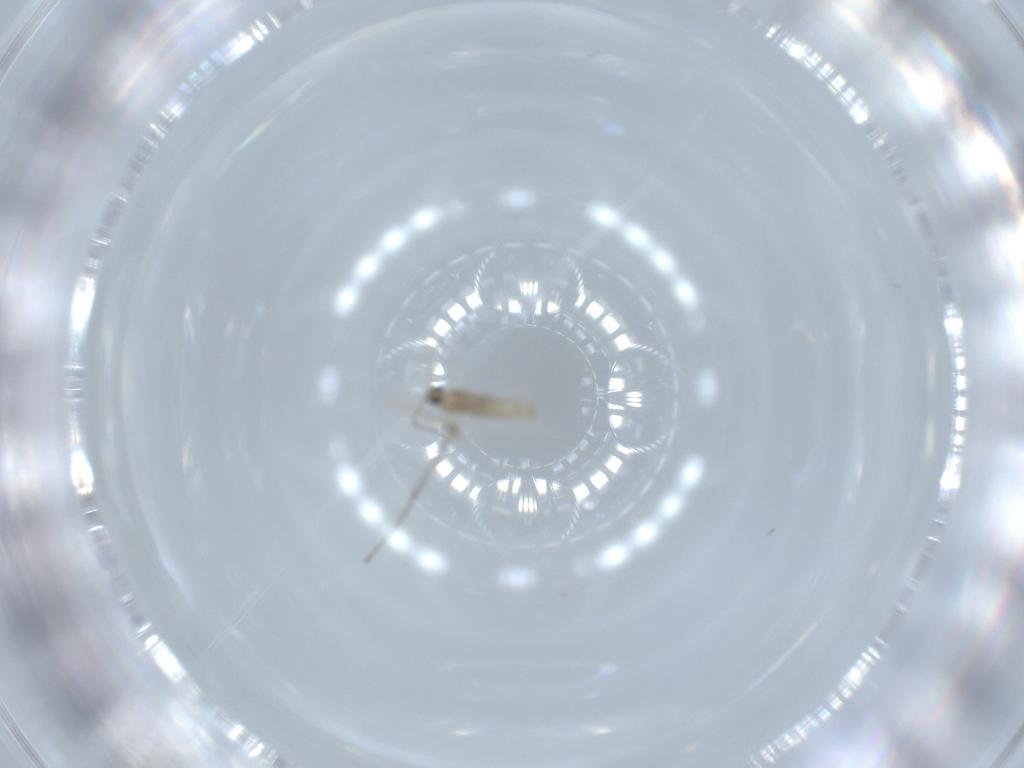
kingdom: Animalia
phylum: Arthropoda
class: Insecta
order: Diptera
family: Chironomidae
